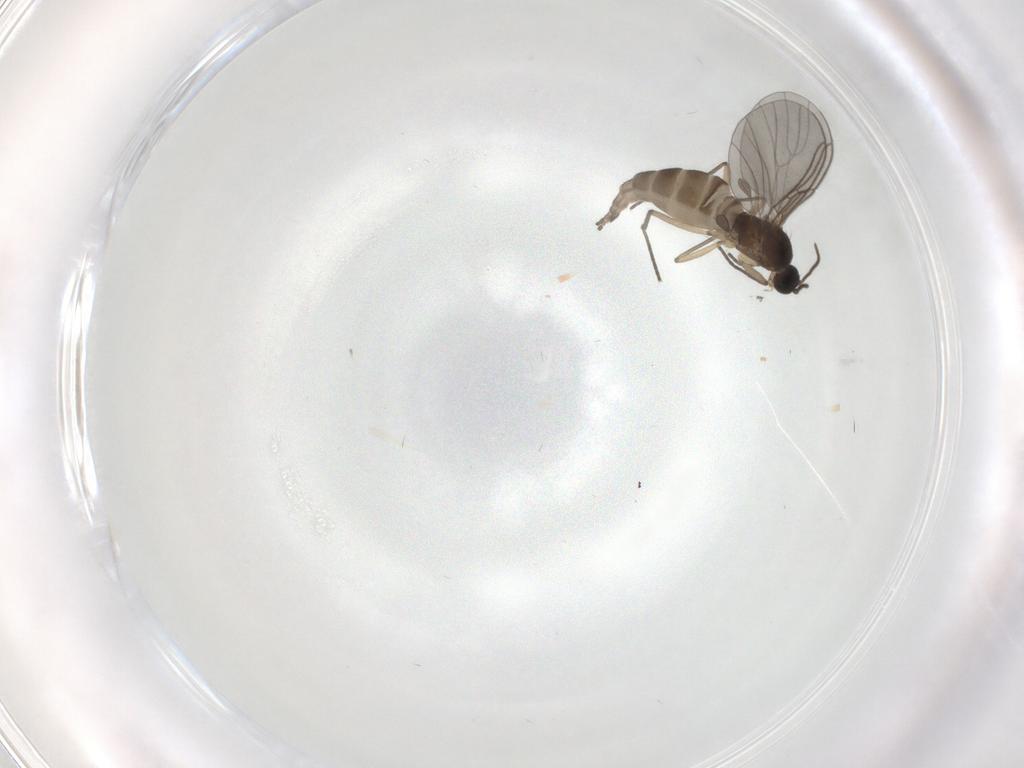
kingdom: Animalia
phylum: Arthropoda
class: Insecta
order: Diptera
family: Sciaridae
